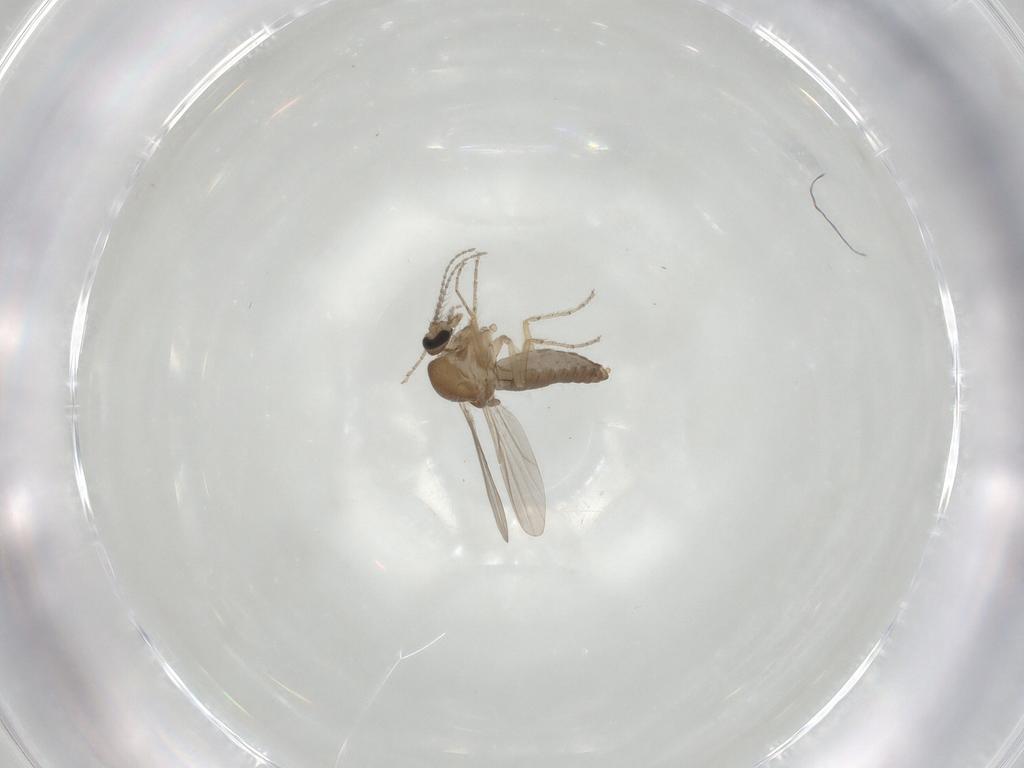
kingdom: Animalia
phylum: Arthropoda
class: Insecta
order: Diptera
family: Ceratopogonidae
